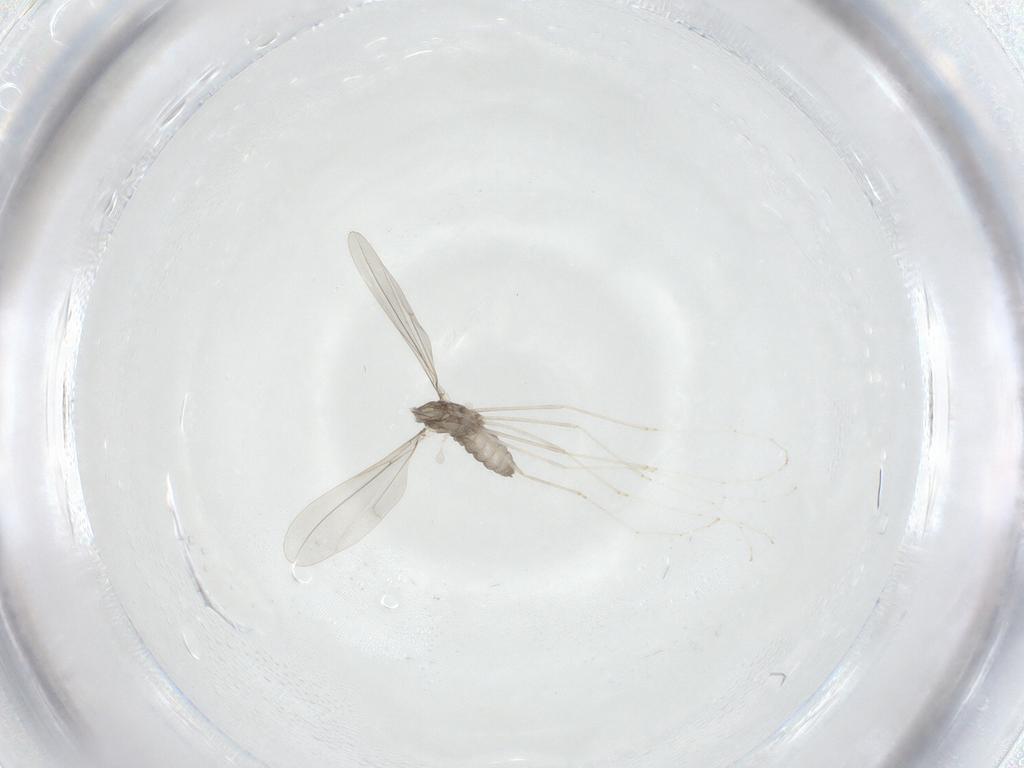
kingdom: Animalia
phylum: Arthropoda
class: Insecta
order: Diptera
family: Cecidomyiidae
